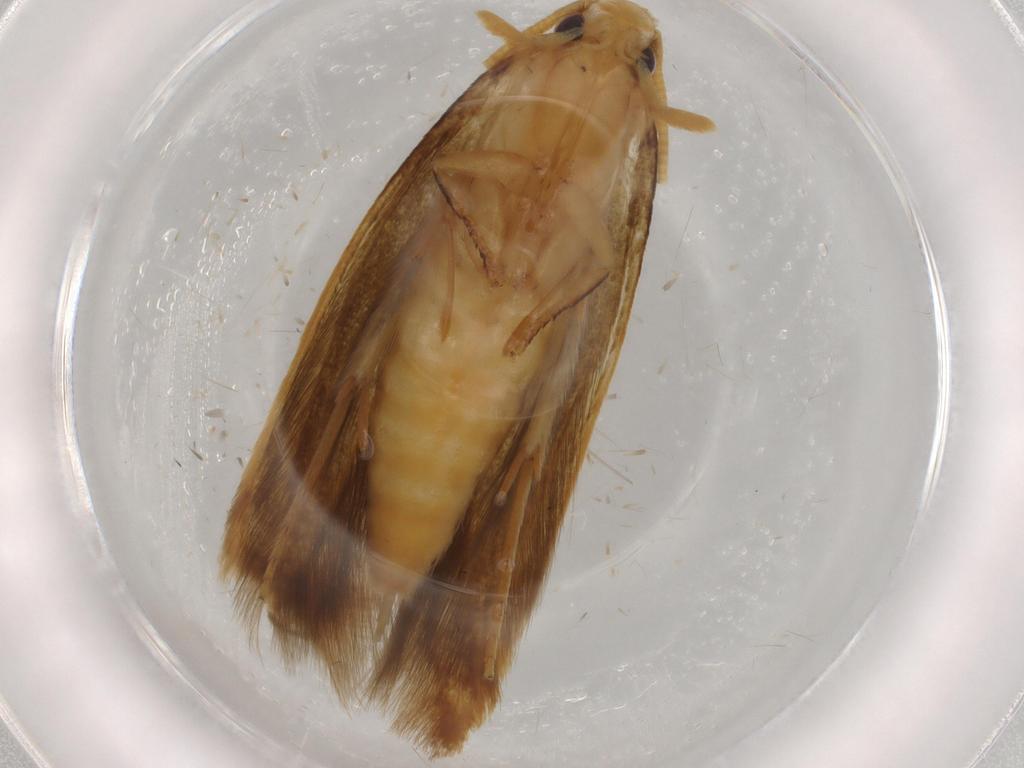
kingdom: Animalia
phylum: Arthropoda
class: Insecta
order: Lepidoptera
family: Tineidae
